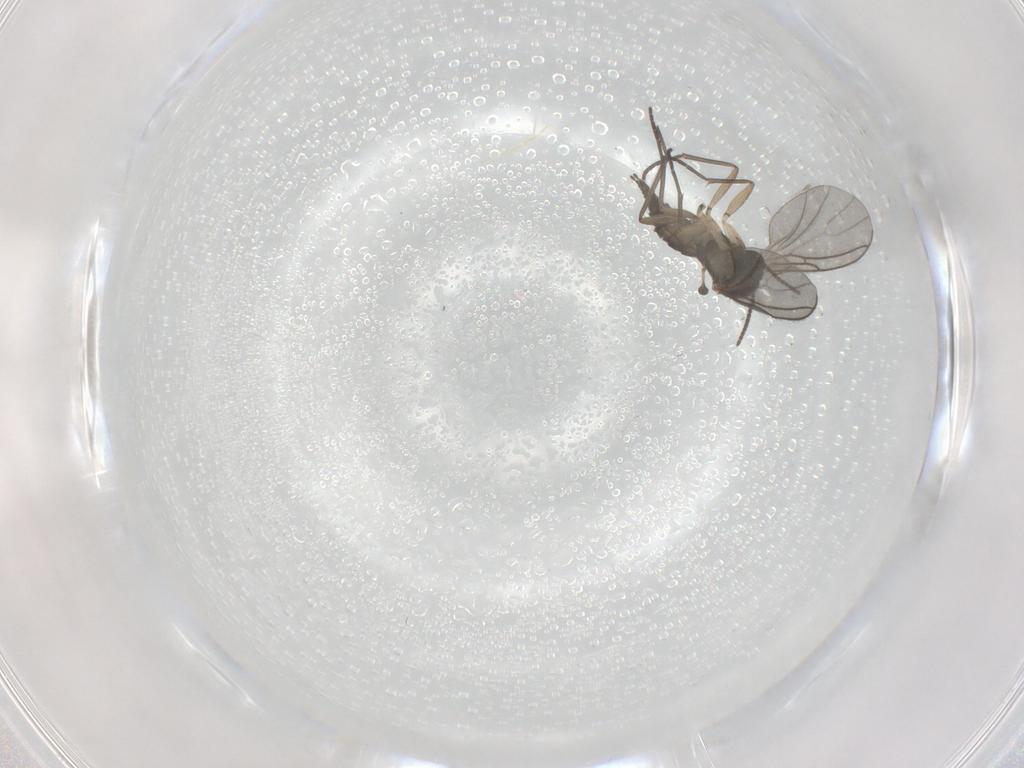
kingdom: Animalia
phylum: Arthropoda
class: Insecta
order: Diptera
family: Sciaridae
